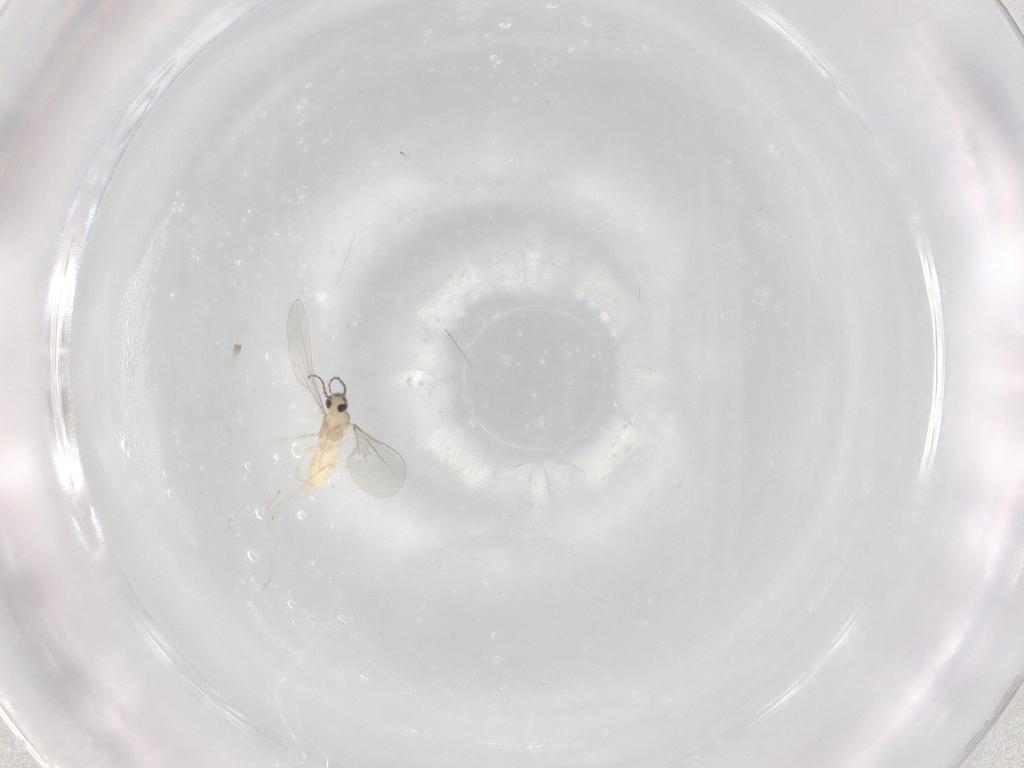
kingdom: Animalia
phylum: Arthropoda
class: Insecta
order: Diptera
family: Cecidomyiidae
